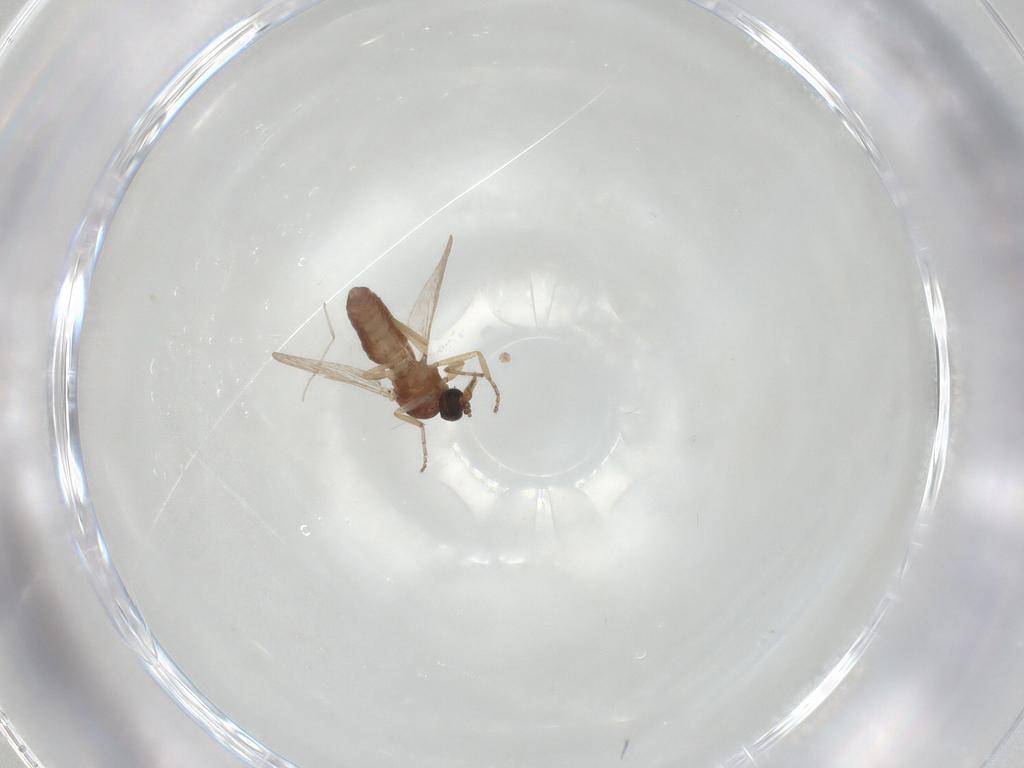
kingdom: Animalia
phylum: Arthropoda
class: Insecta
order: Diptera
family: Ceratopogonidae
